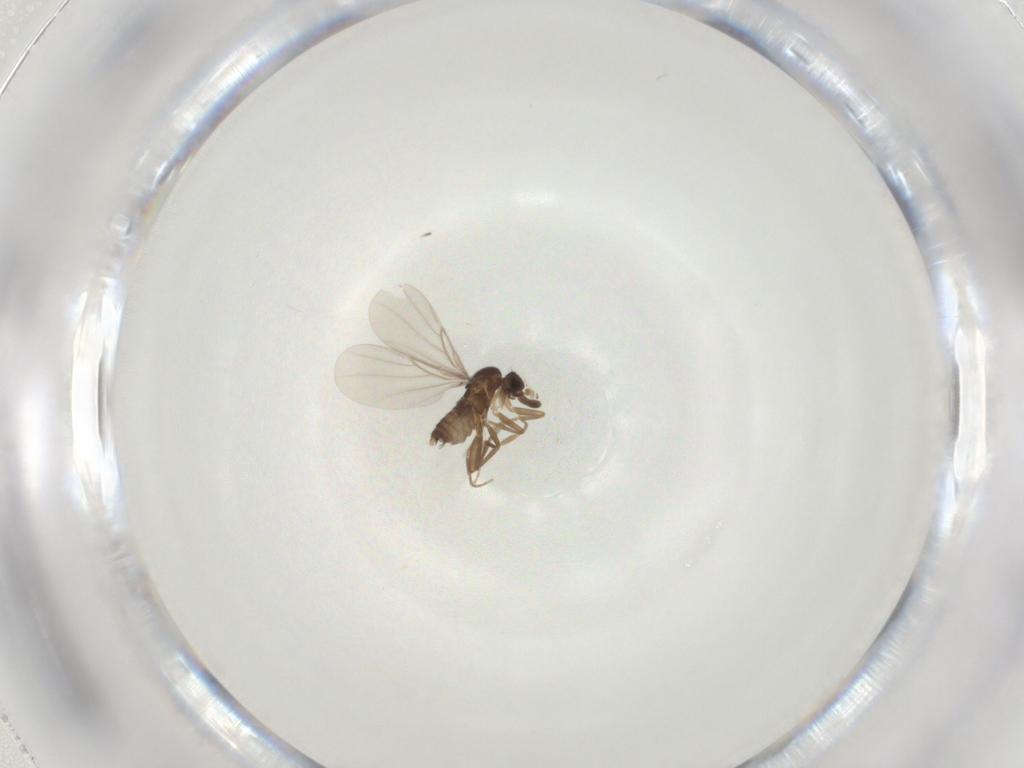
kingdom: Animalia
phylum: Arthropoda
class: Insecta
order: Diptera
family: Phoridae
